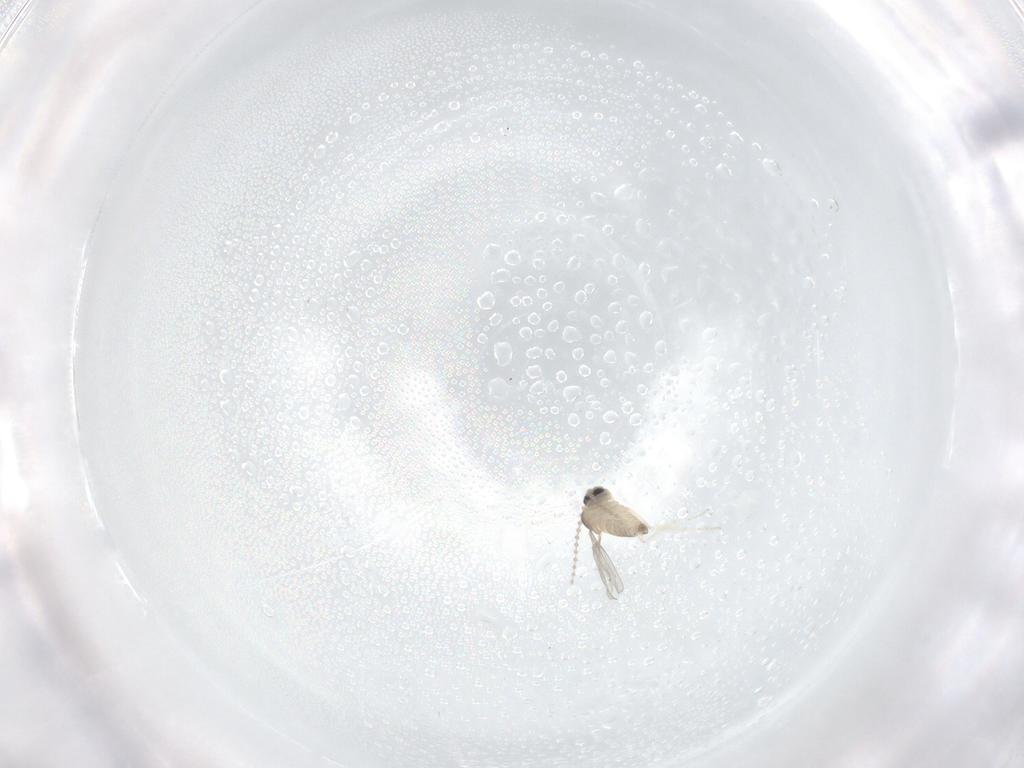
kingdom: Animalia
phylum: Arthropoda
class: Insecta
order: Diptera
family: Cecidomyiidae
